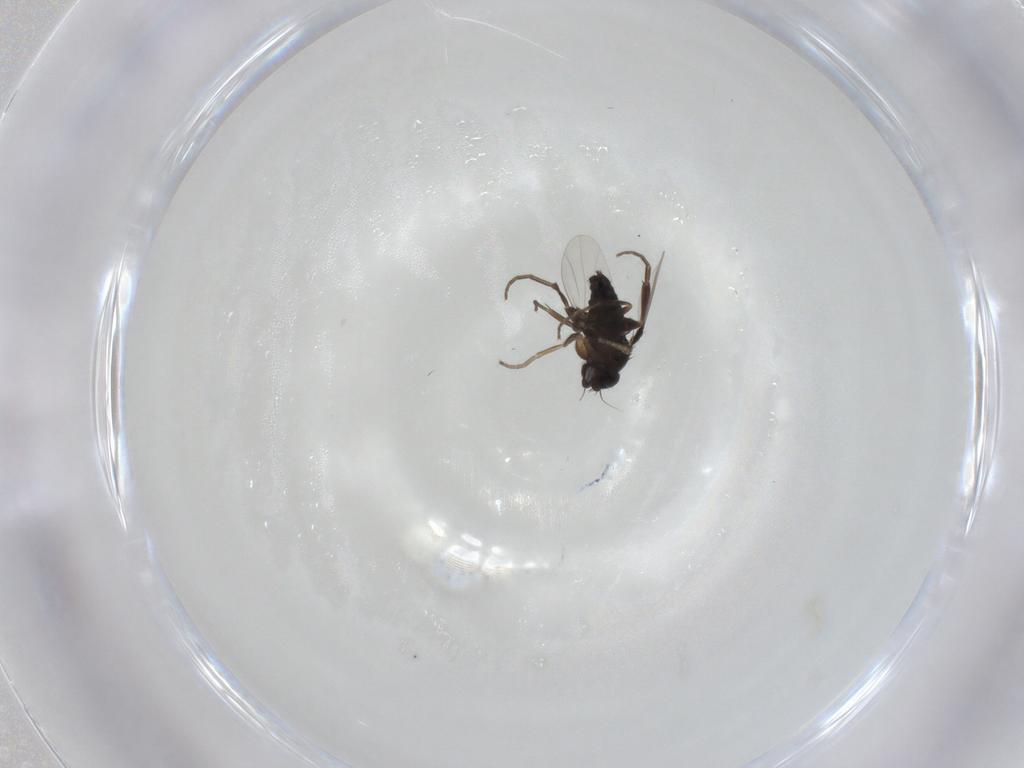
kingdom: Animalia
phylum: Arthropoda
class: Insecta
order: Diptera
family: Phoridae
